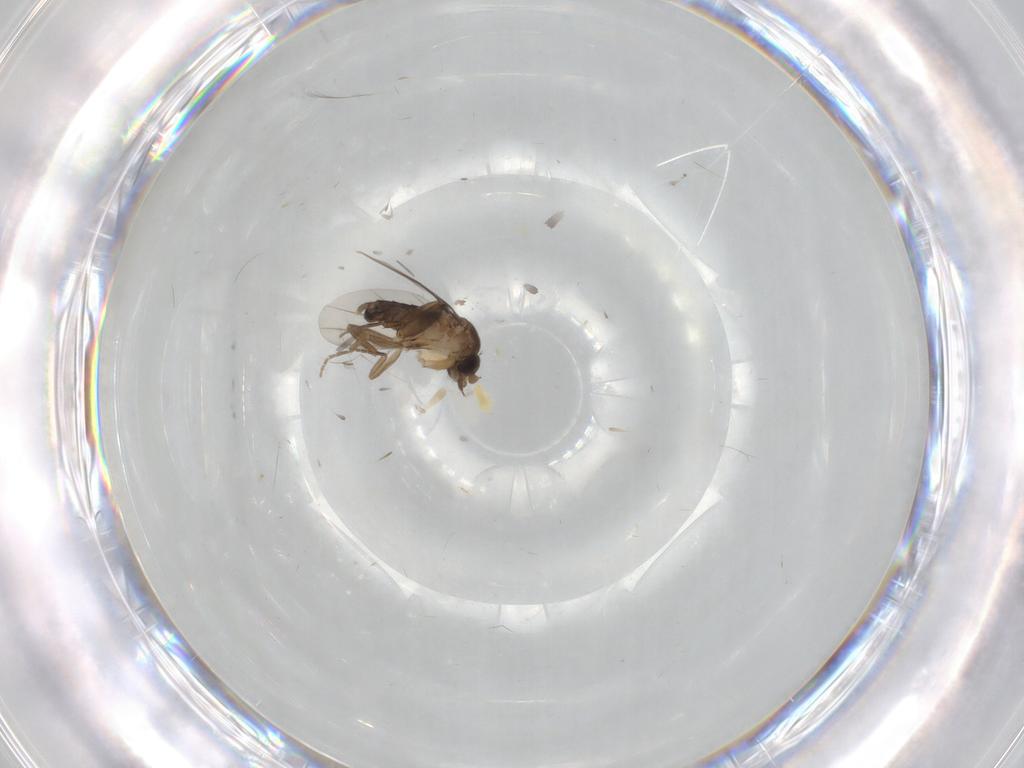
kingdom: Animalia
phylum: Arthropoda
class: Insecta
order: Diptera
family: Phoridae
